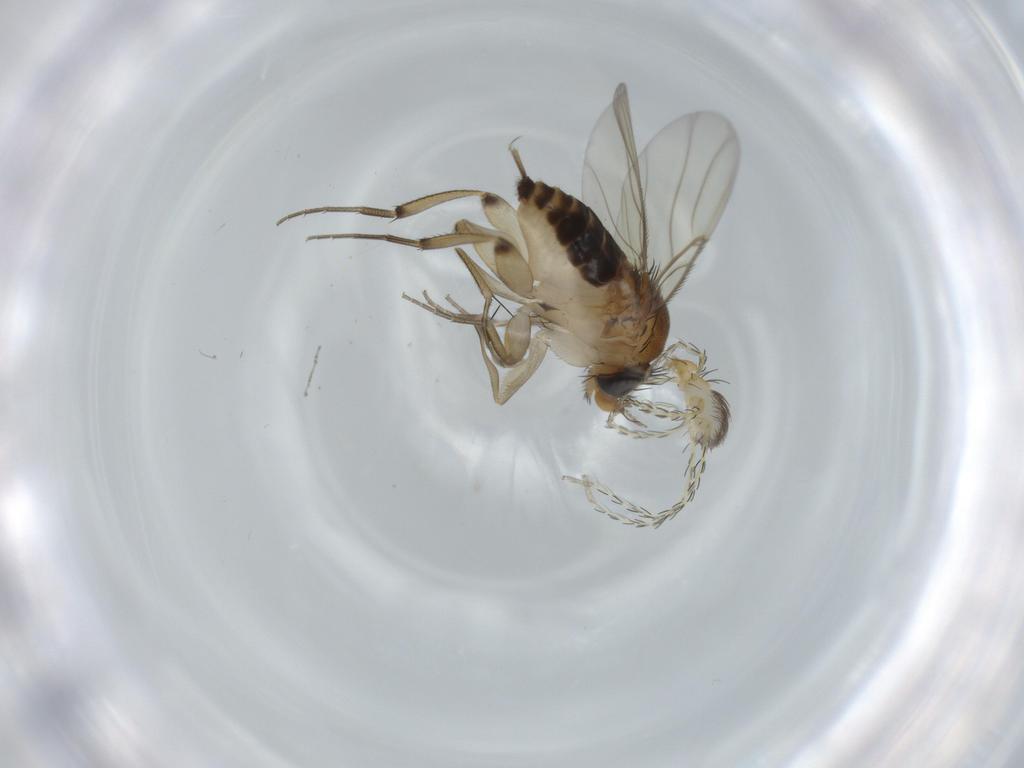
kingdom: Animalia
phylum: Arthropoda
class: Arachnida
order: Trombidiformes
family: Erythraeidae
